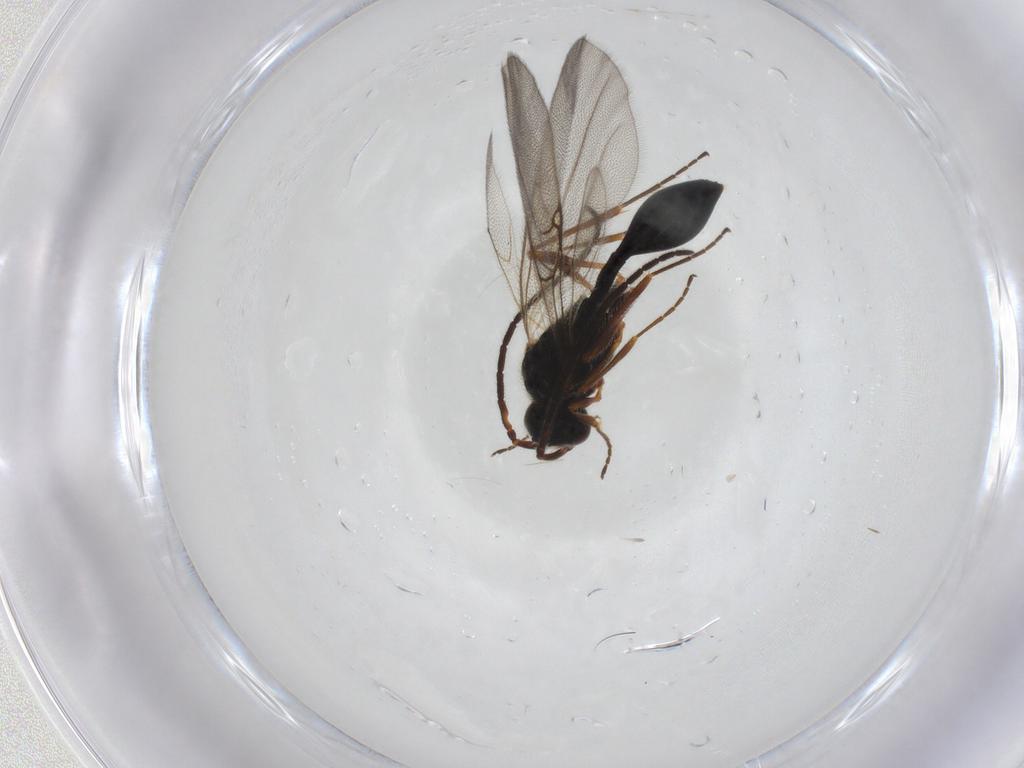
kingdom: Animalia
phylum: Arthropoda
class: Insecta
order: Hymenoptera
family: Diapriidae
